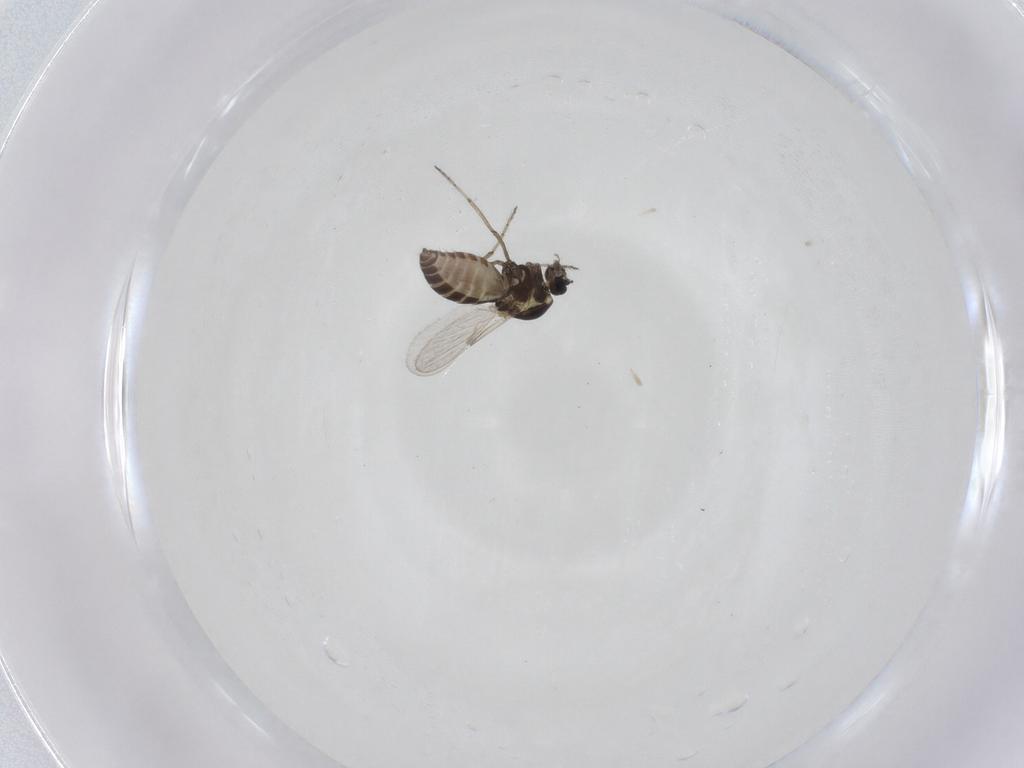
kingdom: Animalia
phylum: Arthropoda
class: Insecta
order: Diptera
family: Ceratopogonidae
